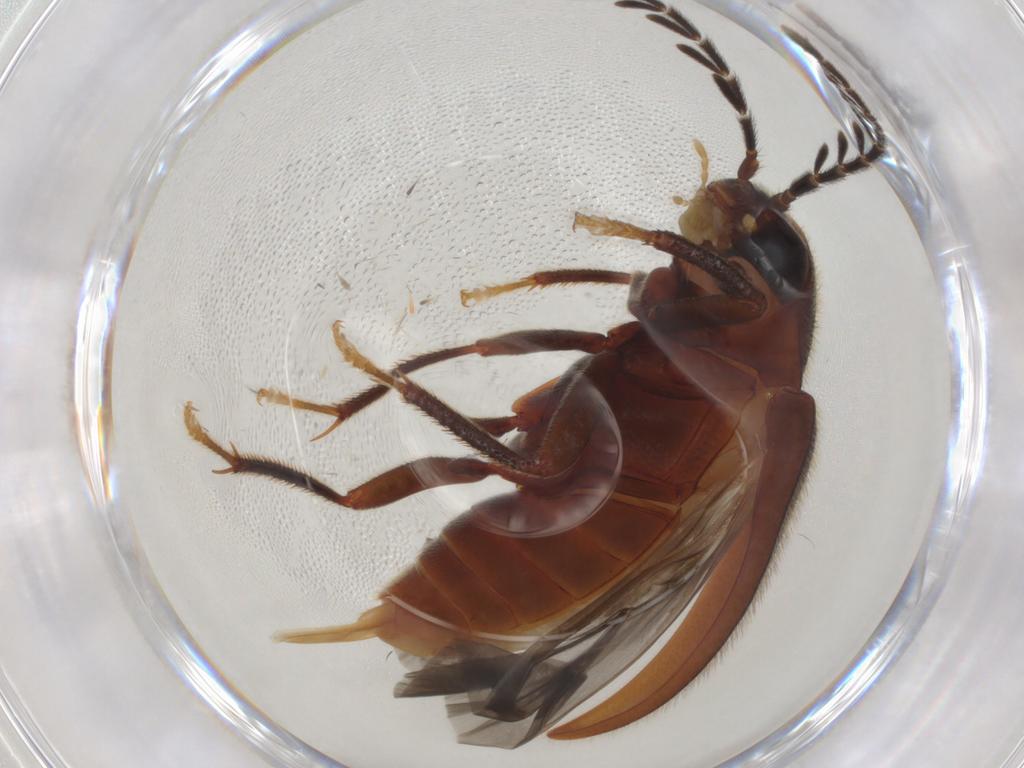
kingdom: Animalia
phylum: Arthropoda
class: Insecta
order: Coleoptera
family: Ptilodactylidae
